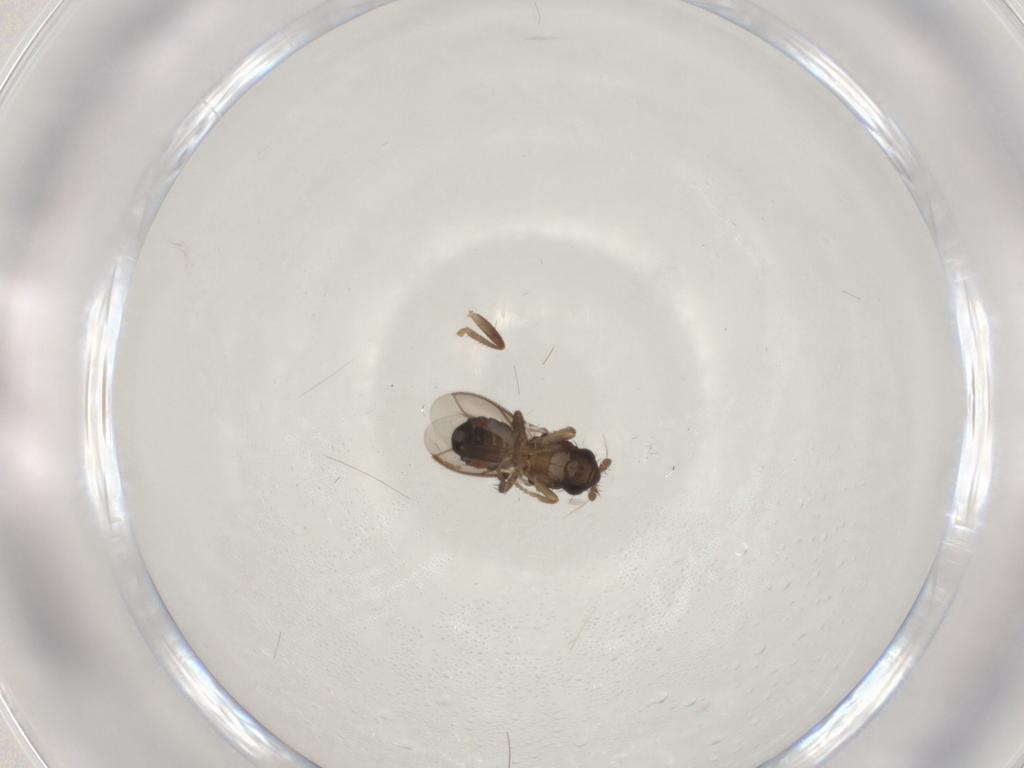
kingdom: Animalia
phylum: Arthropoda
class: Insecta
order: Diptera
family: Sphaeroceridae
